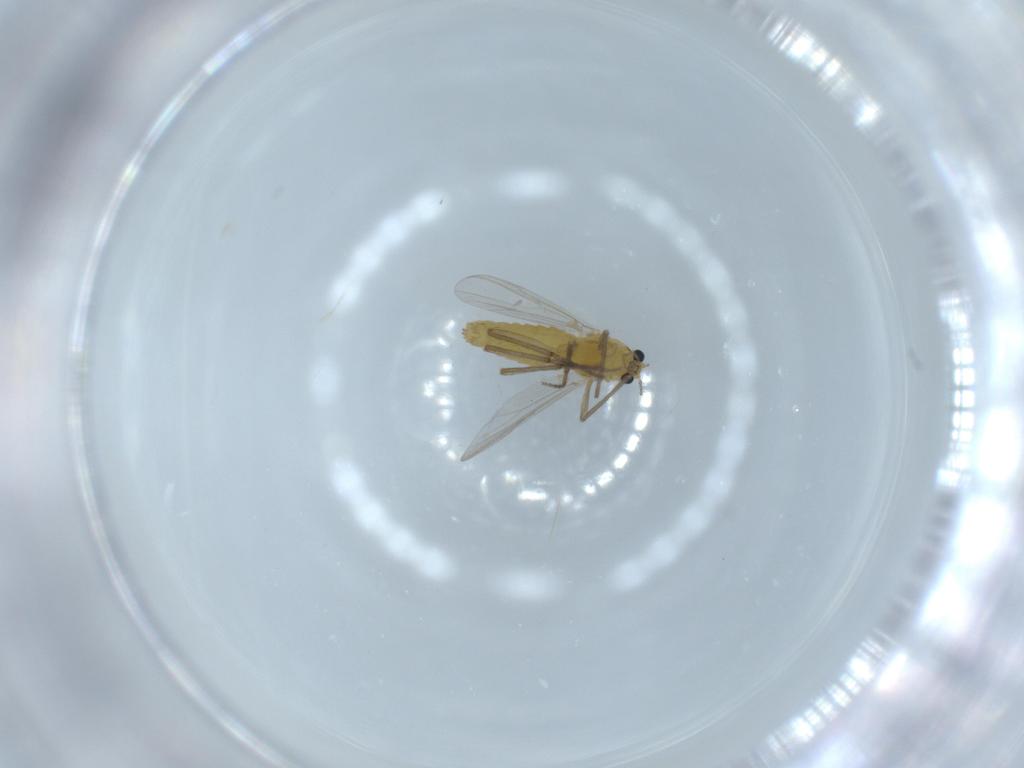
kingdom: Animalia
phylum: Arthropoda
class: Insecta
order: Diptera
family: Chironomidae
